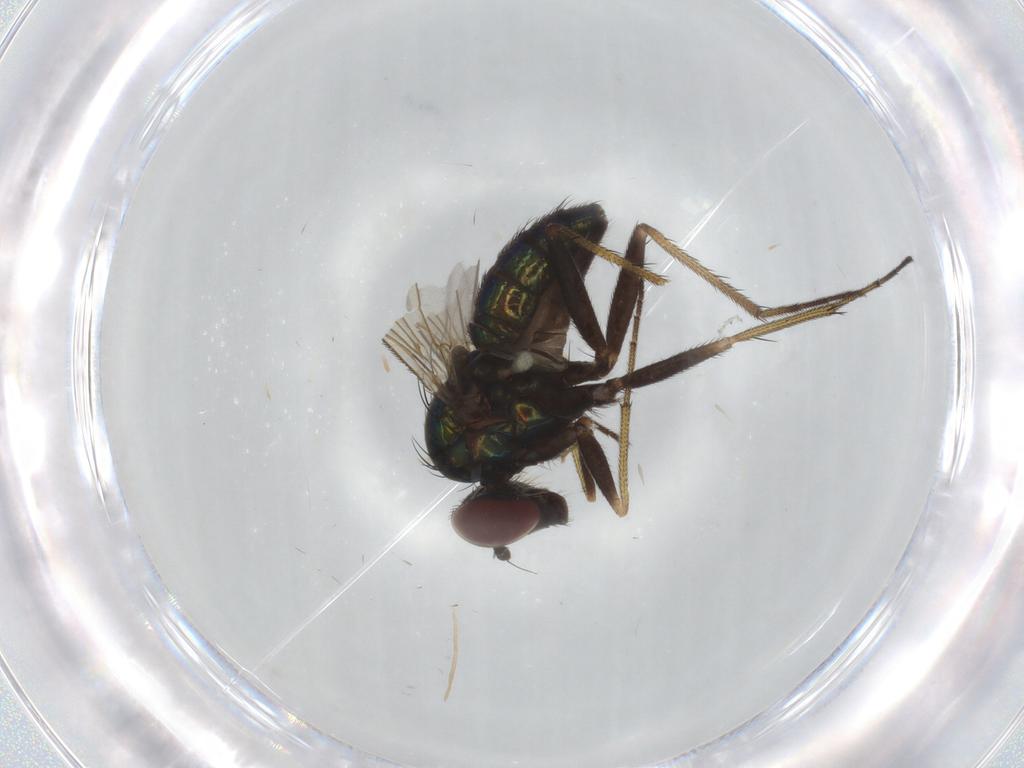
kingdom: Animalia
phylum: Arthropoda
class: Insecta
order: Diptera
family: Dolichopodidae
